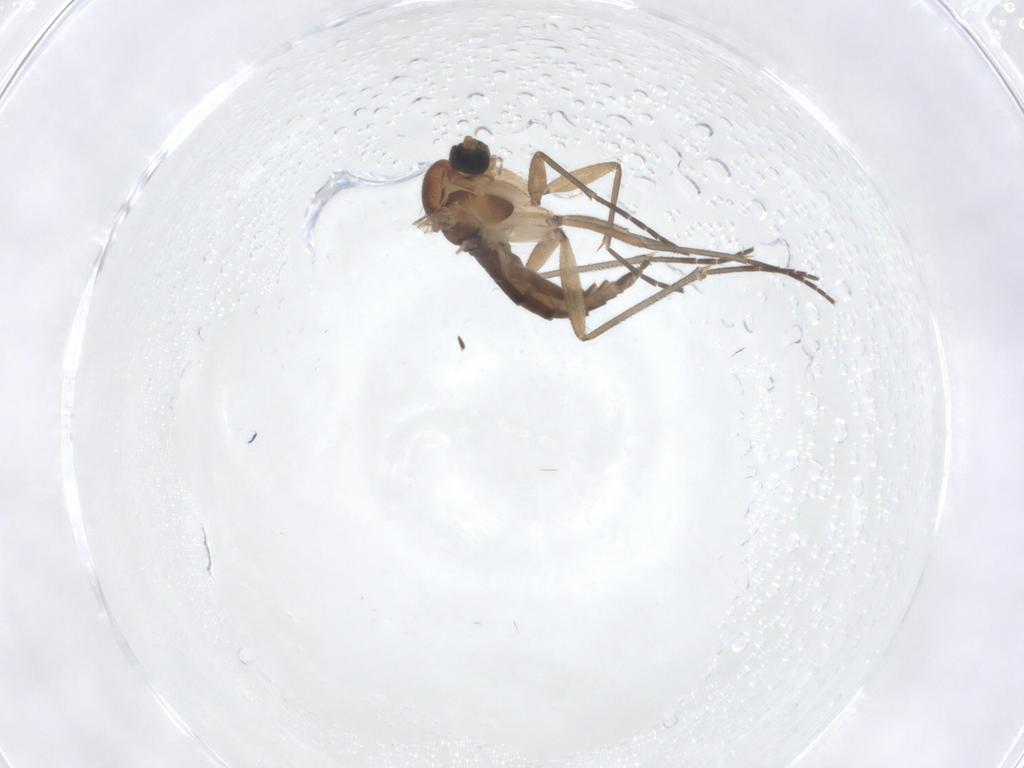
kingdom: Animalia
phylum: Arthropoda
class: Insecta
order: Diptera
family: Sciaridae
